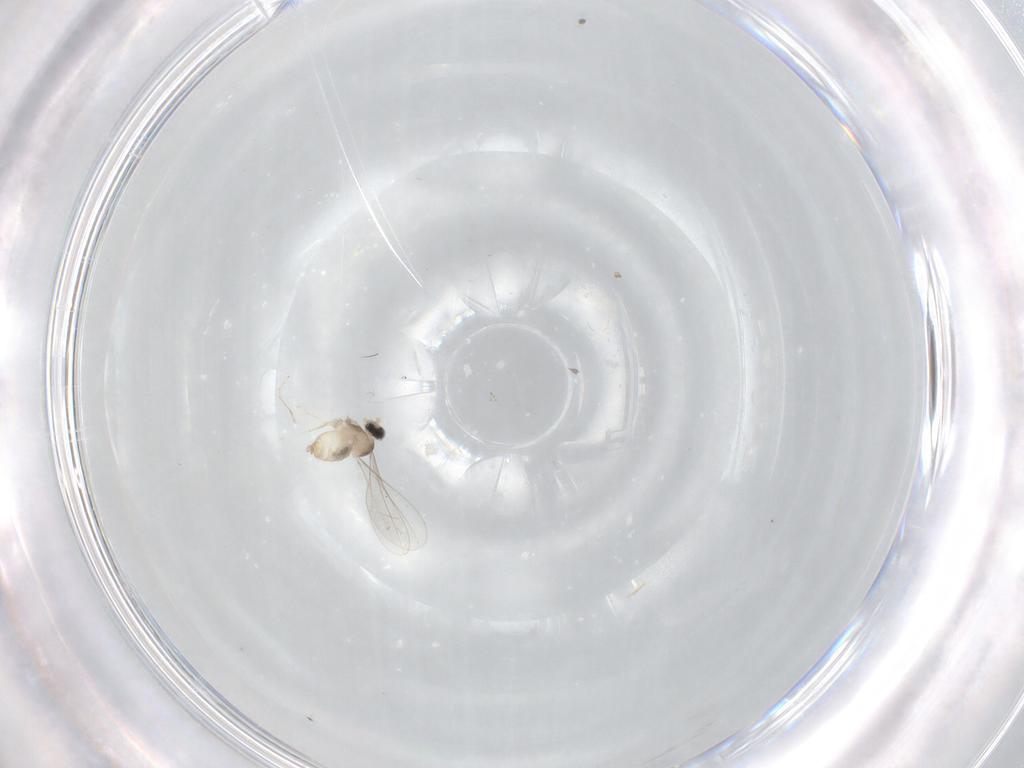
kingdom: Animalia
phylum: Arthropoda
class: Insecta
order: Diptera
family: Cecidomyiidae
